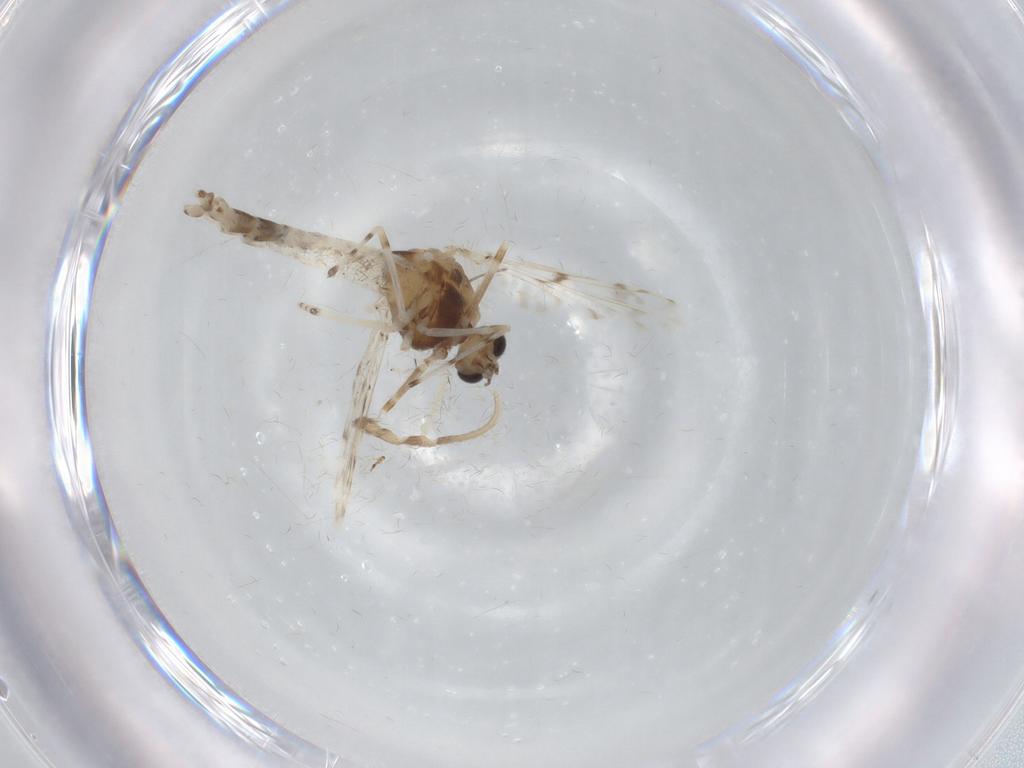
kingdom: Animalia
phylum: Arthropoda
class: Insecta
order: Diptera
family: Chironomidae
